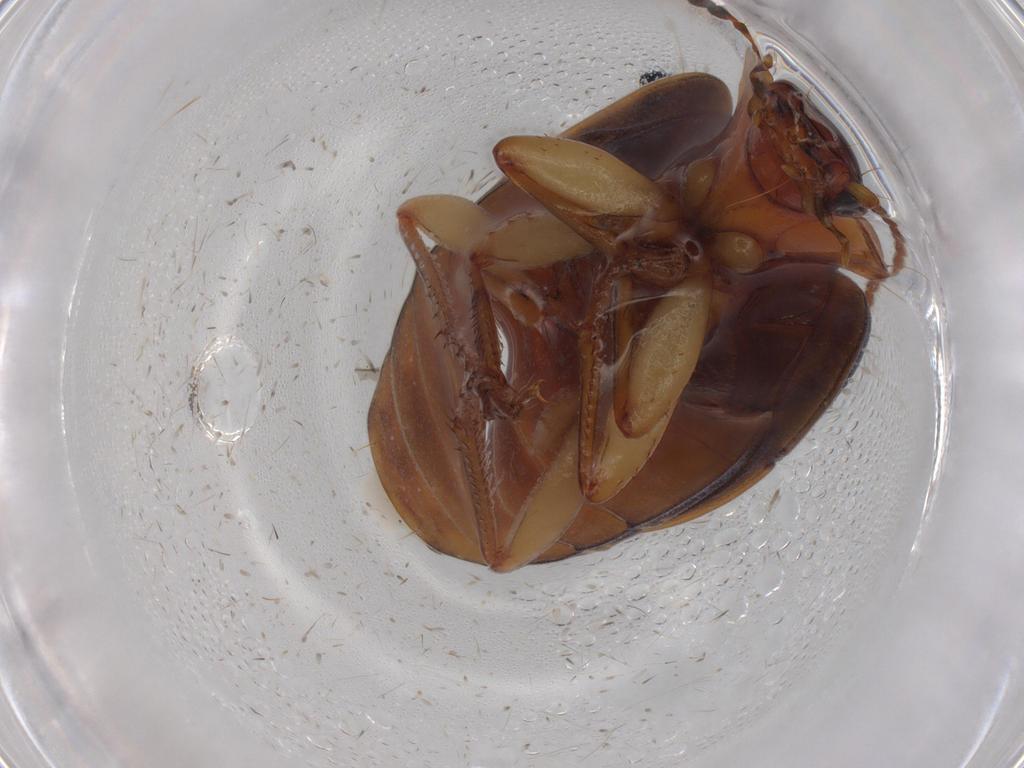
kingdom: Animalia
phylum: Arthropoda
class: Insecta
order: Coleoptera
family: Carabidae
